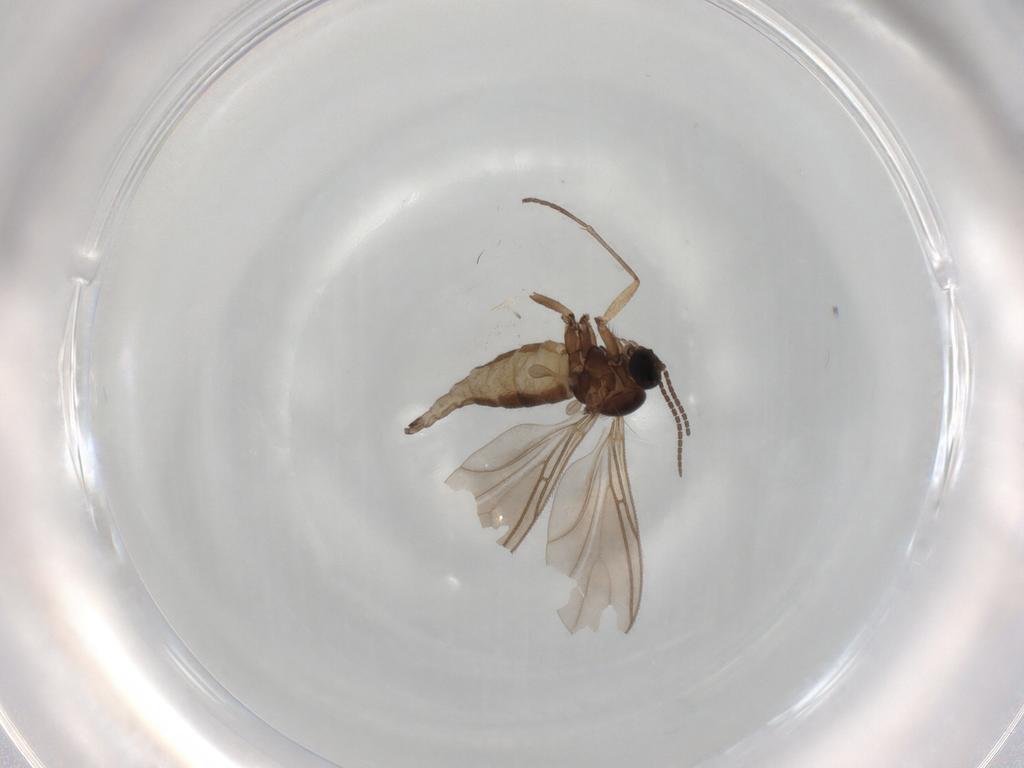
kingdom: Animalia
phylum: Arthropoda
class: Insecta
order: Diptera
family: Sciaridae
